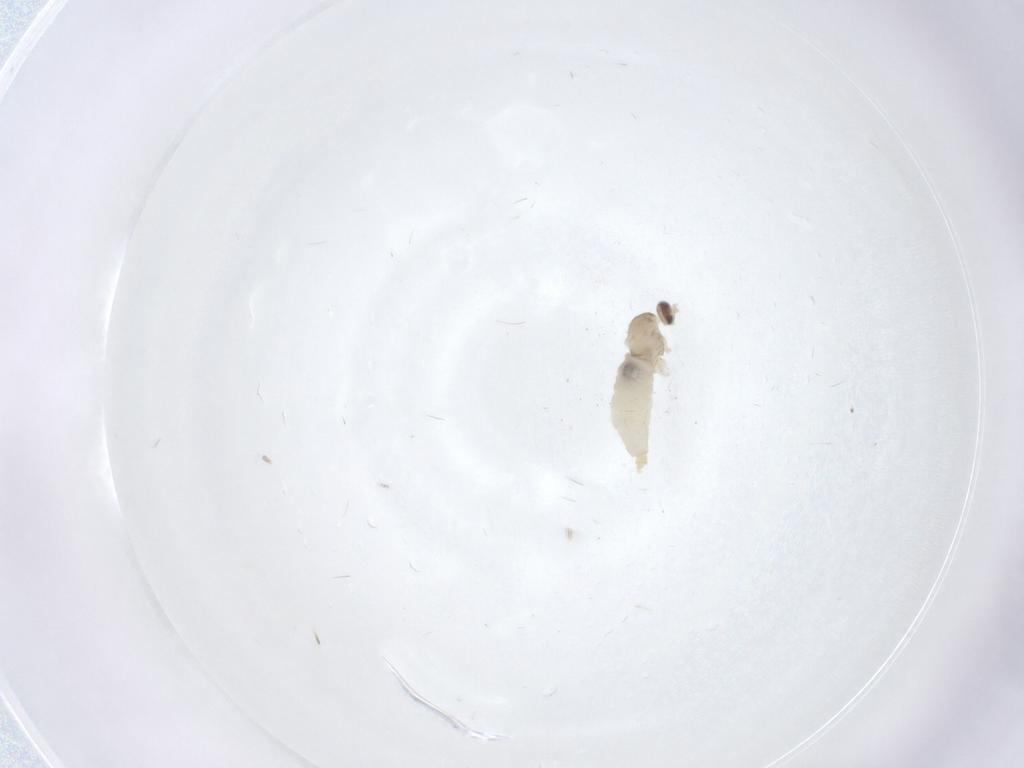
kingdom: Animalia
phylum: Arthropoda
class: Insecta
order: Diptera
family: Cecidomyiidae
